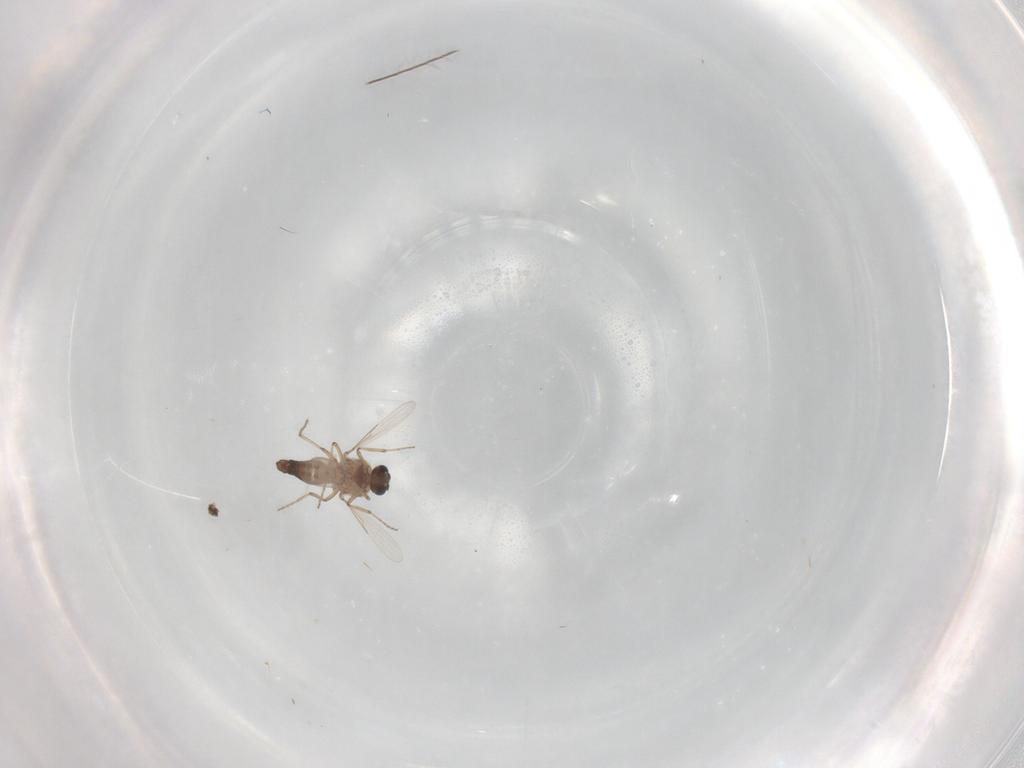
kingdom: Animalia
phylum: Arthropoda
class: Insecta
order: Diptera
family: Ceratopogonidae
